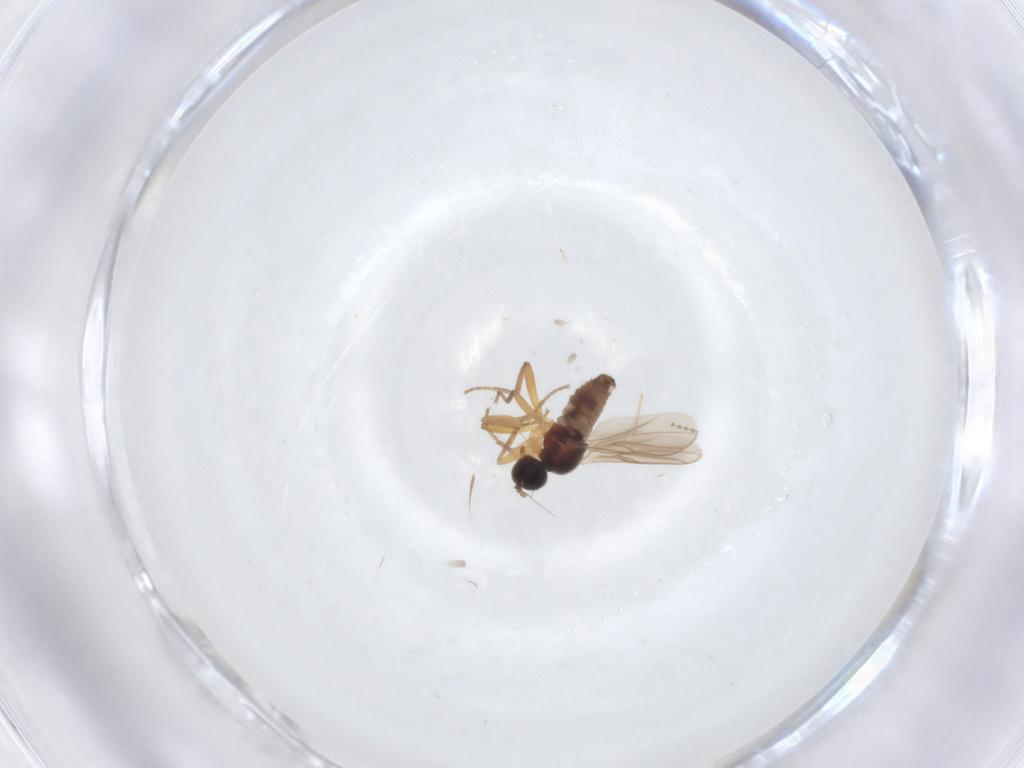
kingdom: Animalia
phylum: Arthropoda
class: Insecta
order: Diptera
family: Hybotidae
